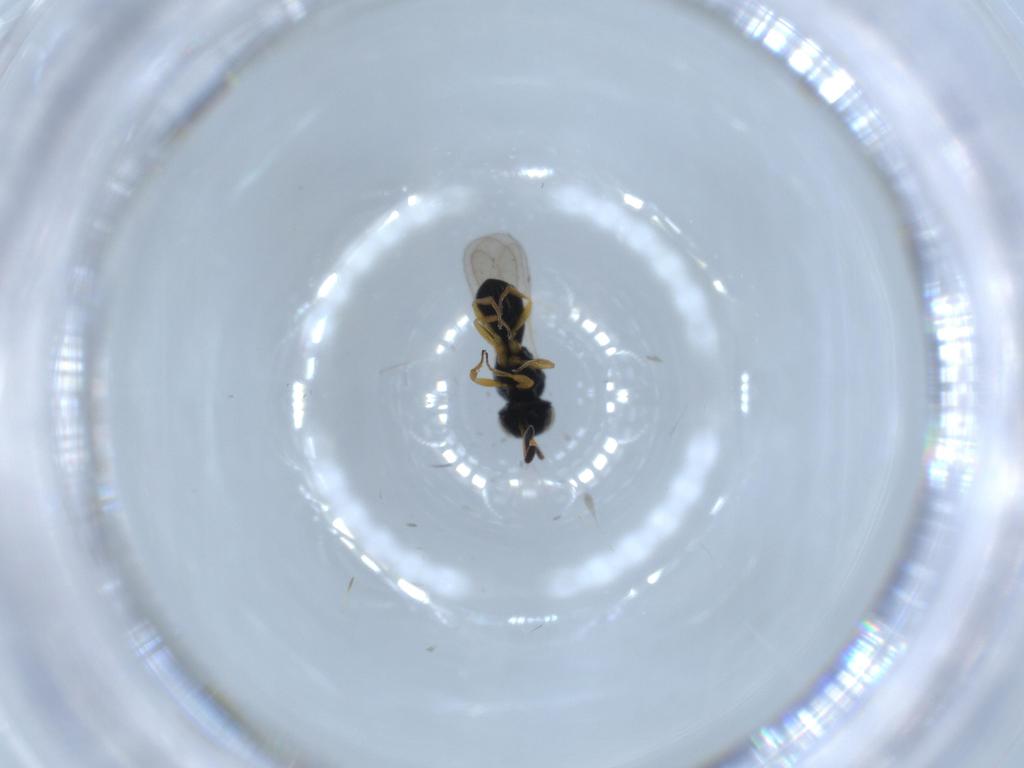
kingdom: Animalia
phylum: Arthropoda
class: Insecta
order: Hymenoptera
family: Scelionidae
